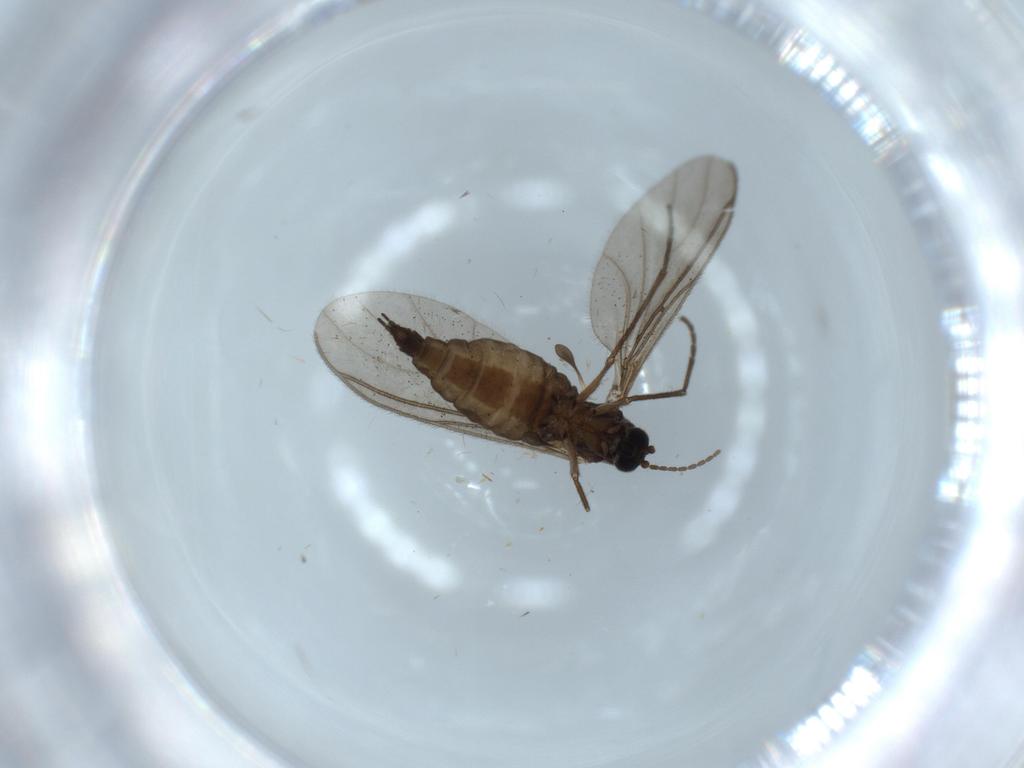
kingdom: Animalia
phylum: Arthropoda
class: Insecta
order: Diptera
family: Sciaridae
